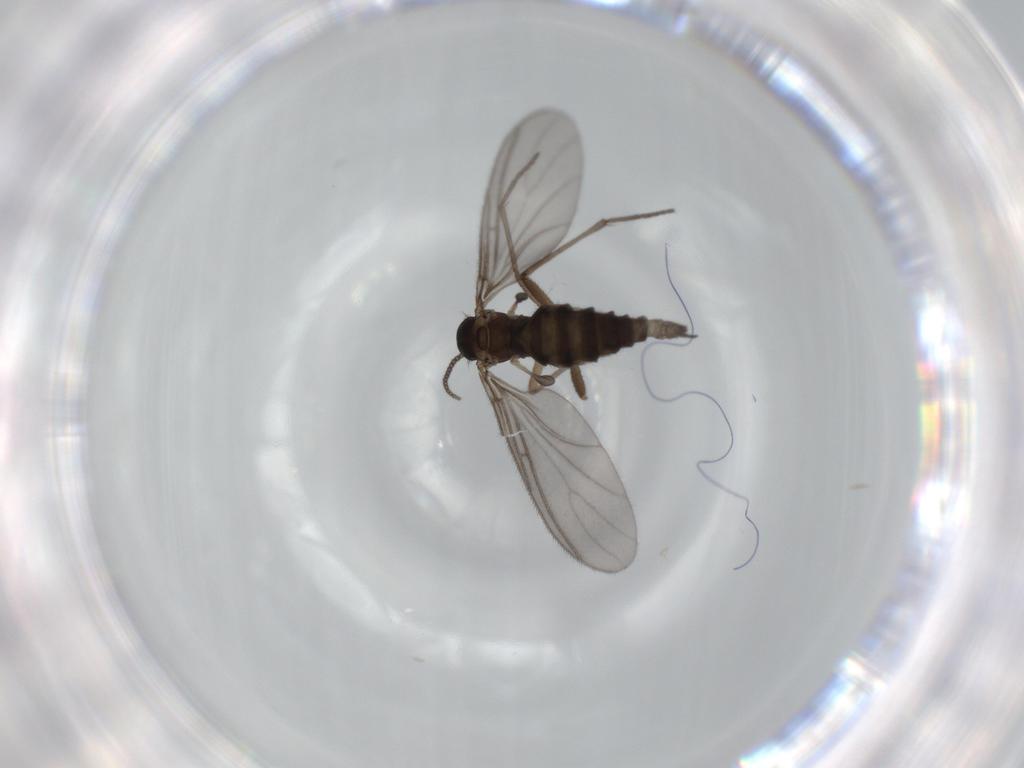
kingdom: Animalia
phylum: Arthropoda
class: Insecta
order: Diptera
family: Sciaridae
